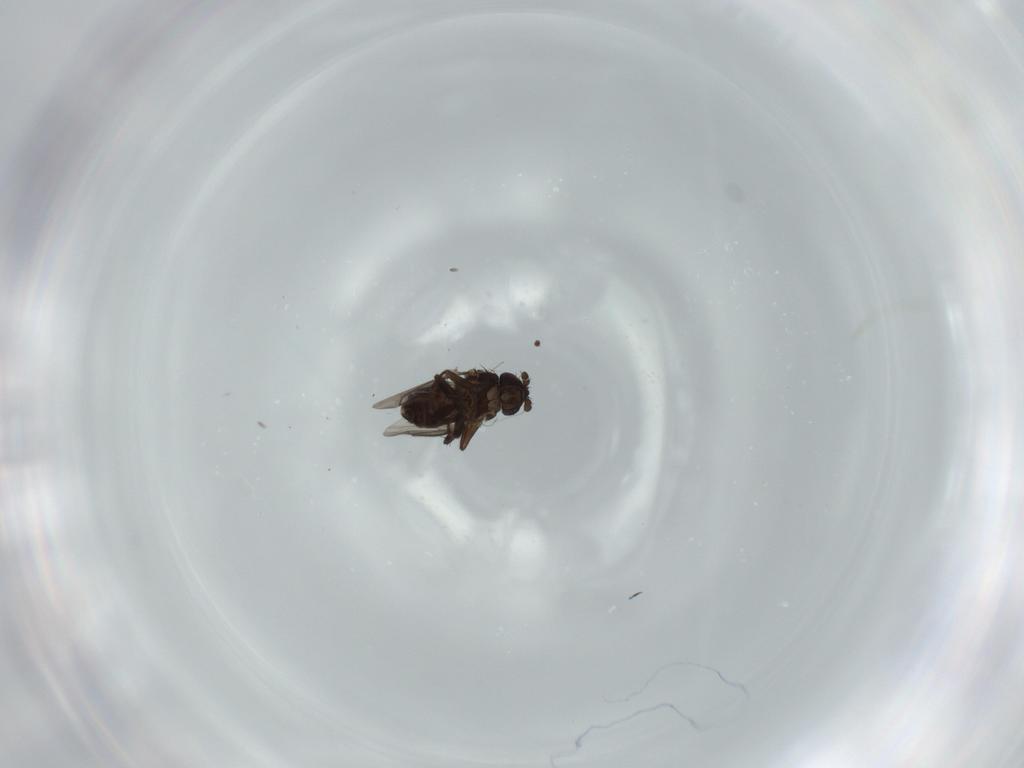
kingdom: Animalia
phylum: Arthropoda
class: Insecta
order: Diptera
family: Sphaeroceridae
